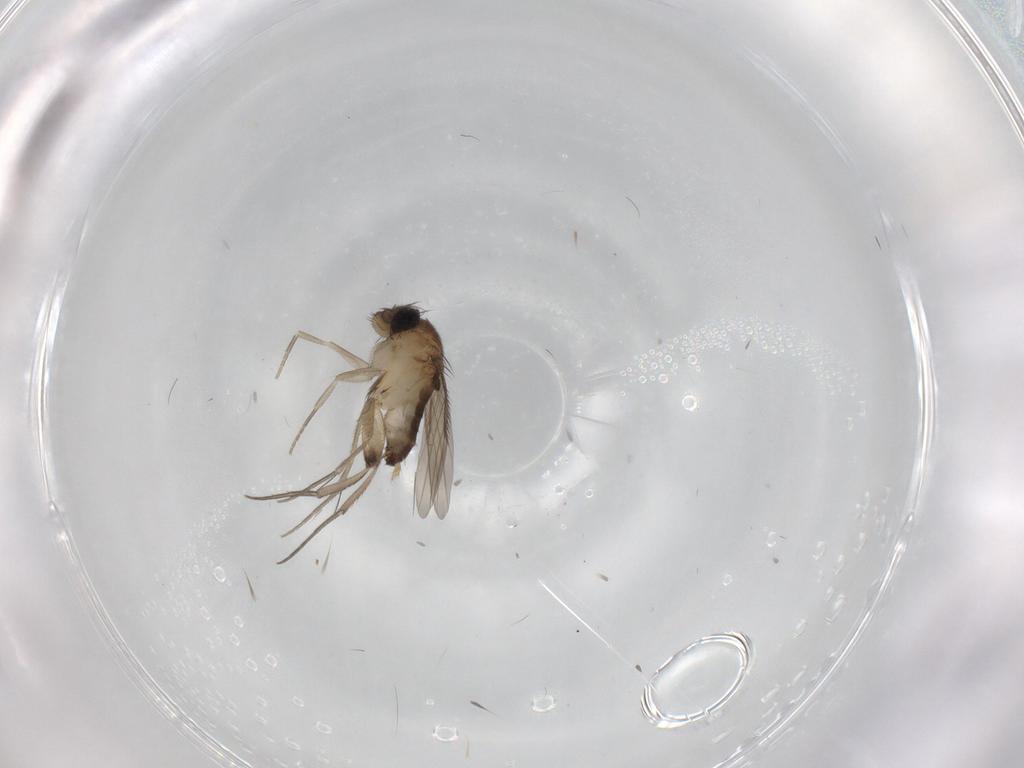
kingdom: Animalia
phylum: Arthropoda
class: Insecta
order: Diptera
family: Phoridae
